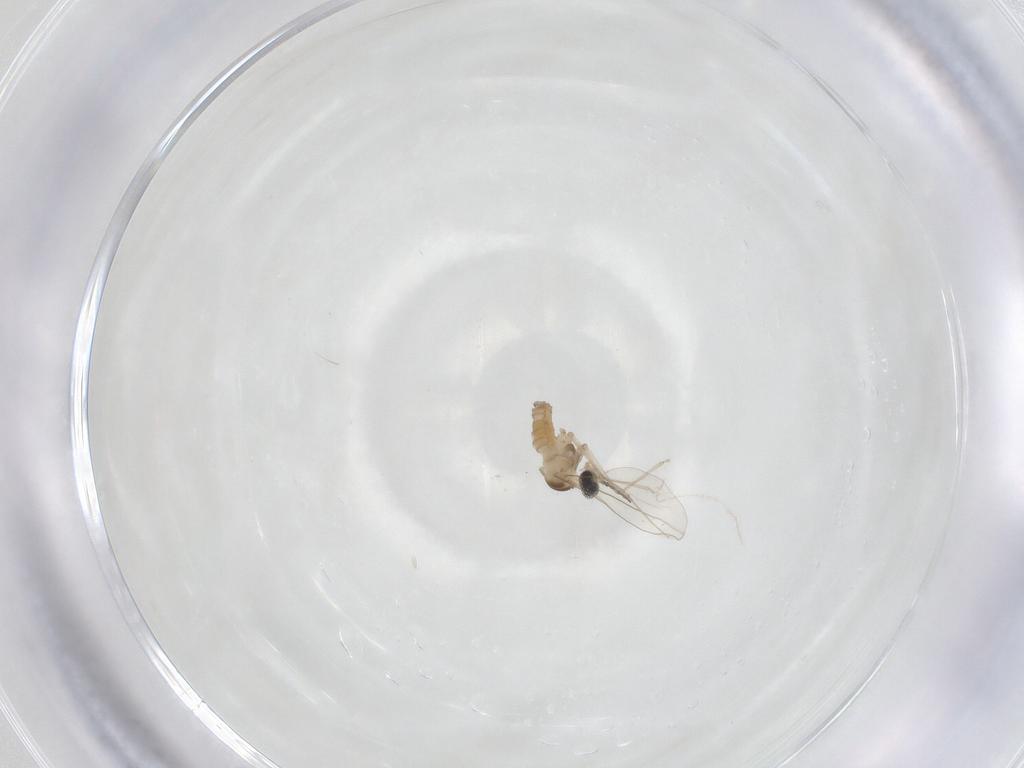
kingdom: Animalia
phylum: Arthropoda
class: Insecta
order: Diptera
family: Cecidomyiidae
